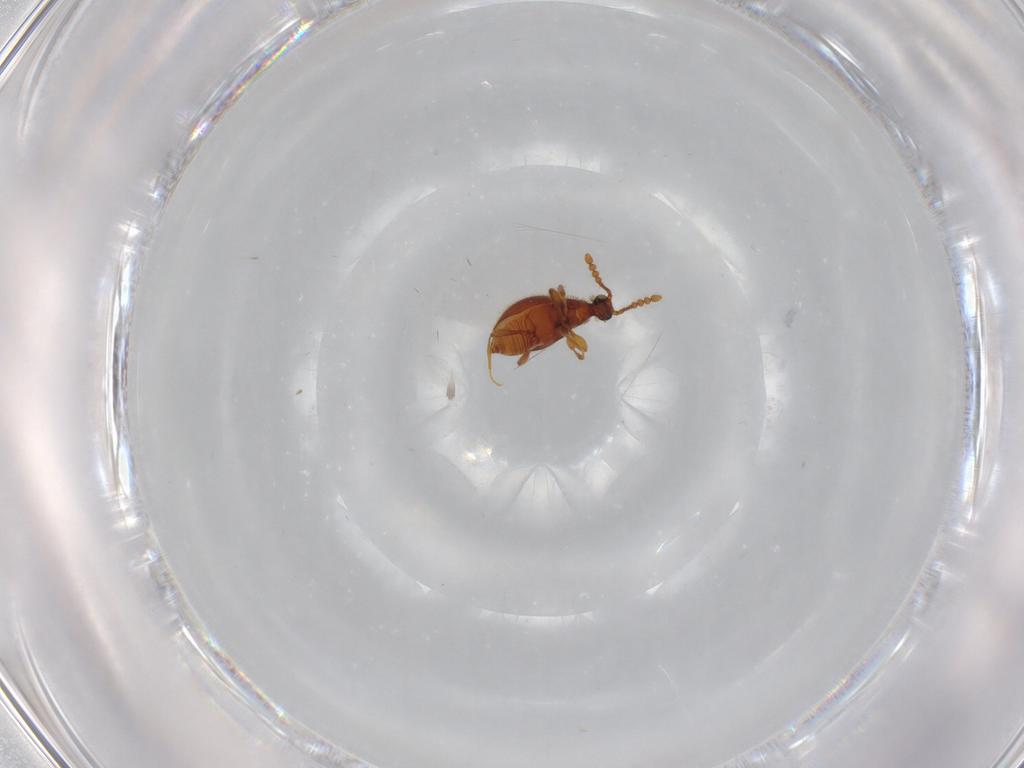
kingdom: Animalia
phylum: Arthropoda
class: Insecta
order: Coleoptera
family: Staphylinidae
